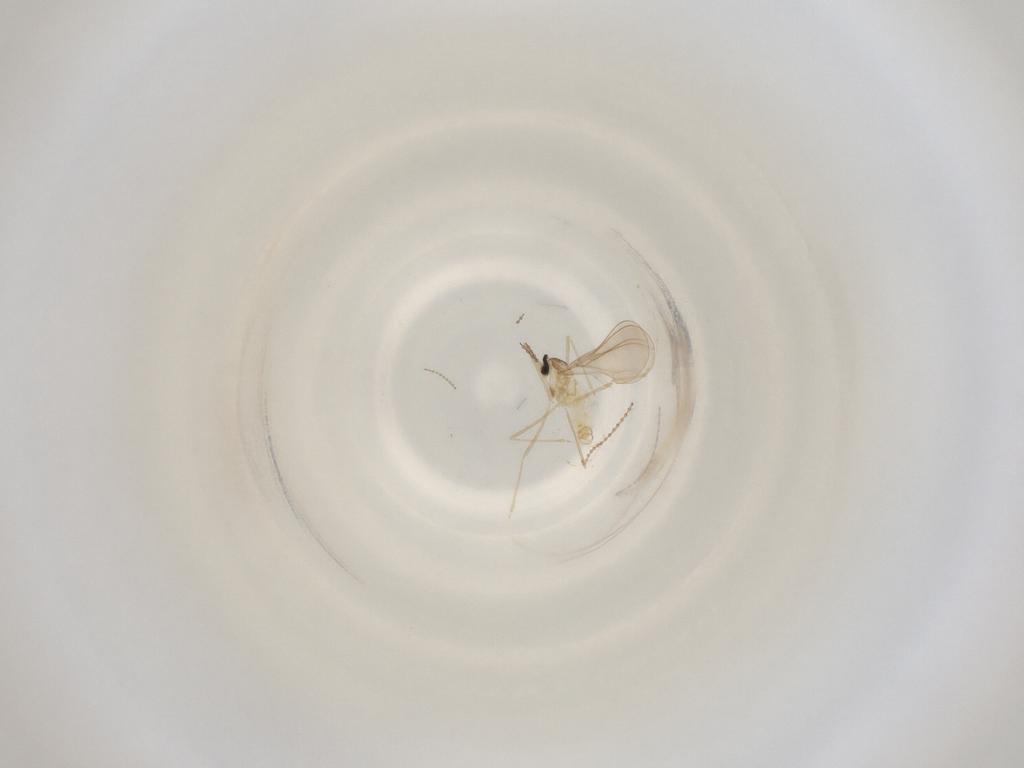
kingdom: Animalia
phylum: Arthropoda
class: Insecta
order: Diptera
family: Cecidomyiidae
